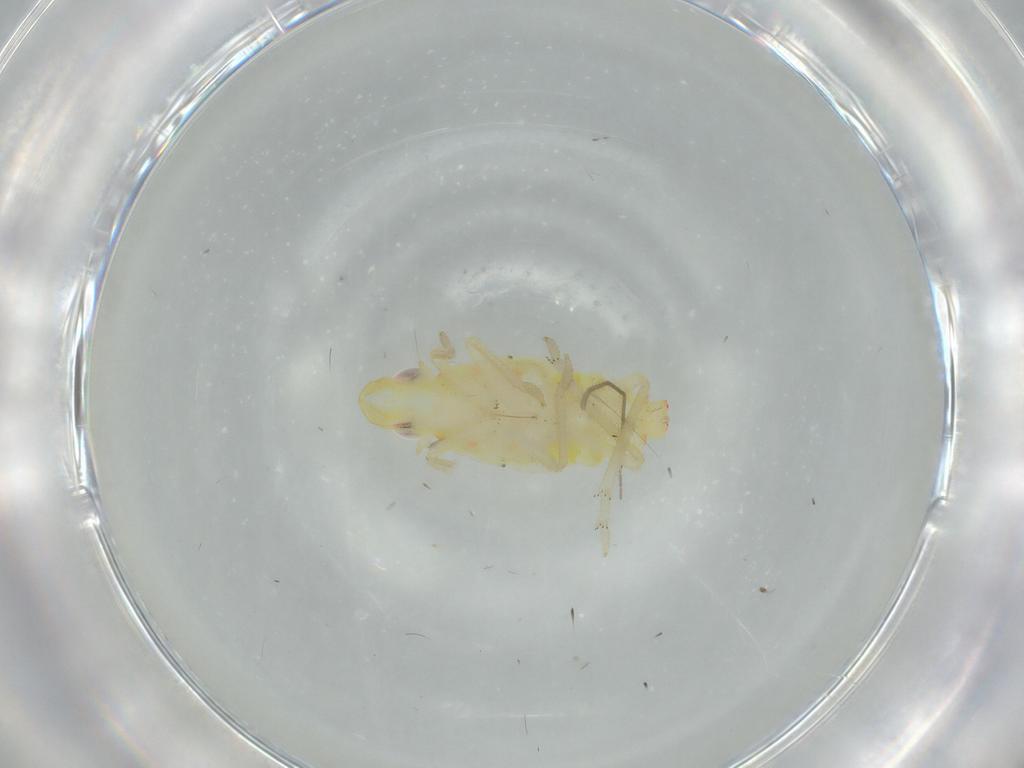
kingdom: Animalia
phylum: Arthropoda
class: Insecta
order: Hemiptera
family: Tropiduchidae
